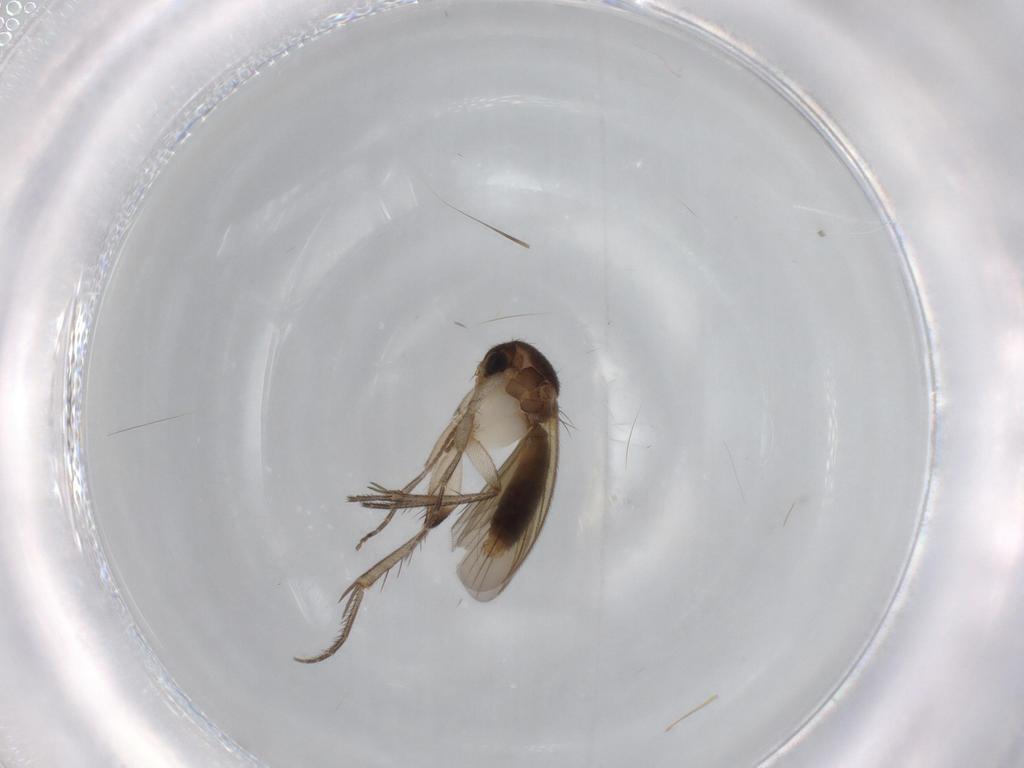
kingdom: Animalia
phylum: Arthropoda
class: Insecta
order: Diptera
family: Mycetophilidae
